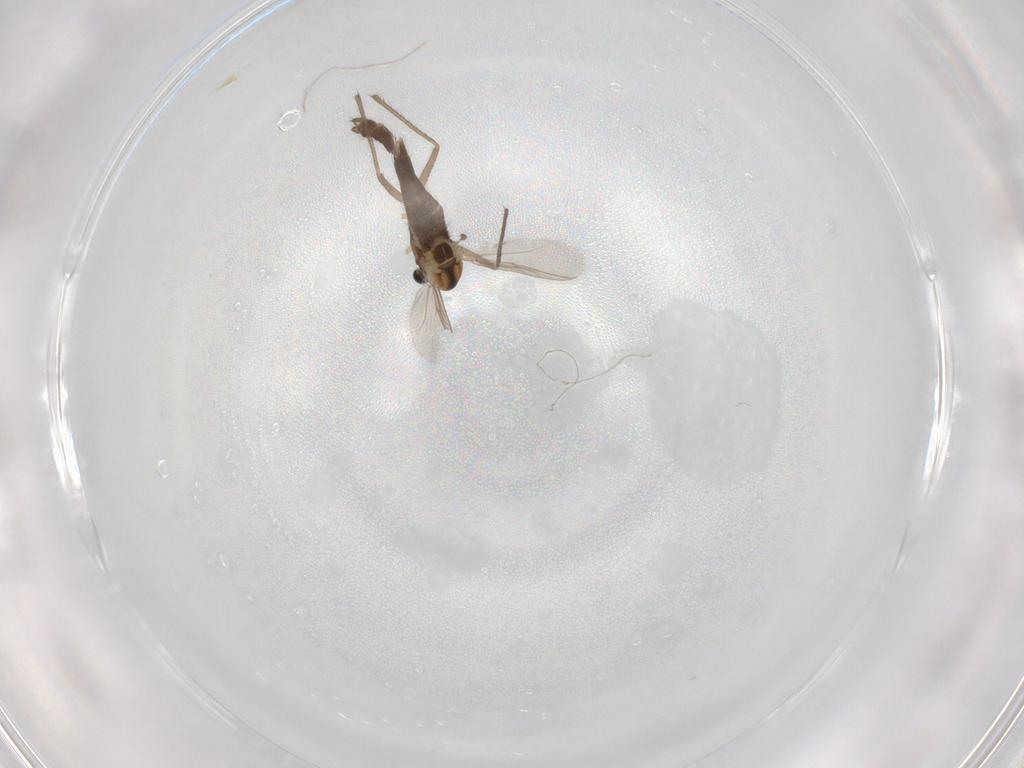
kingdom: Animalia
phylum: Arthropoda
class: Insecta
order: Diptera
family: Chironomidae
